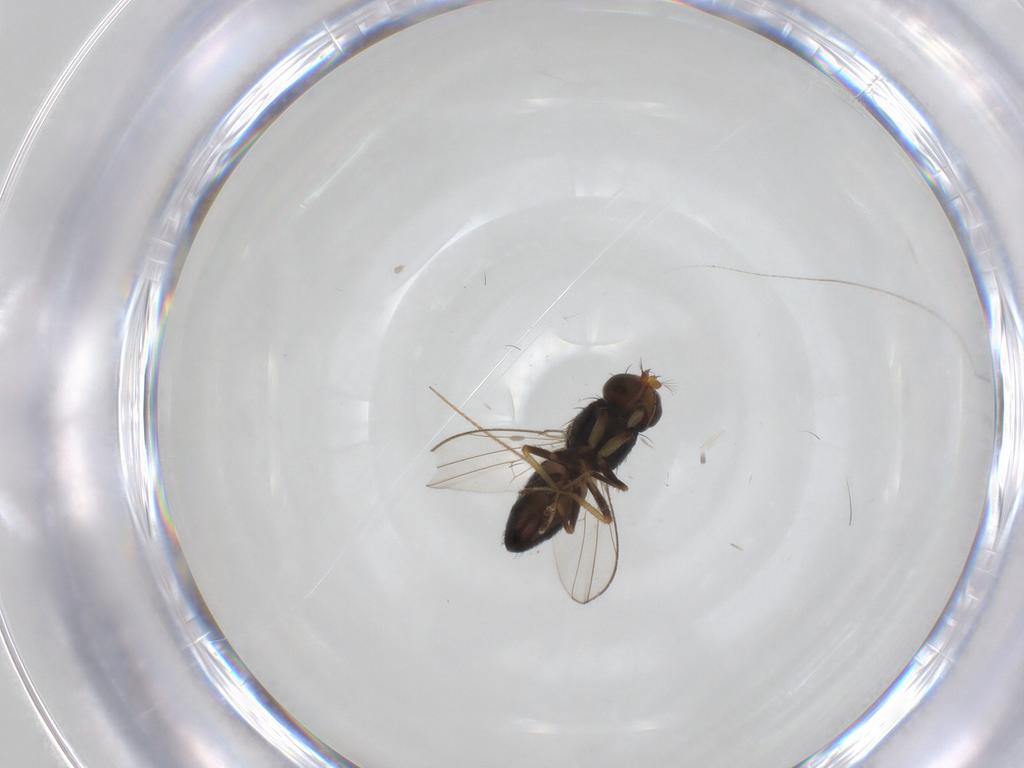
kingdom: Animalia
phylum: Arthropoda
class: Insecta
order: Diptera
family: Ephydridae
